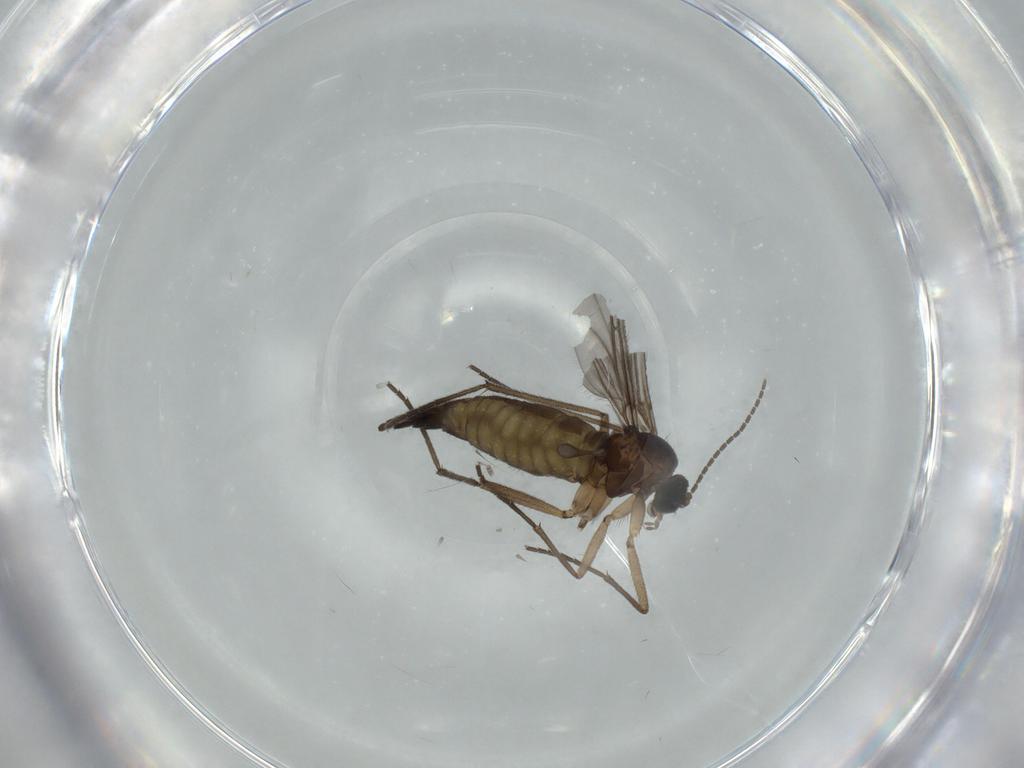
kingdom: Animalia
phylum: Arthropoda
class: Insecta
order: Diptera
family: Sciaridae
